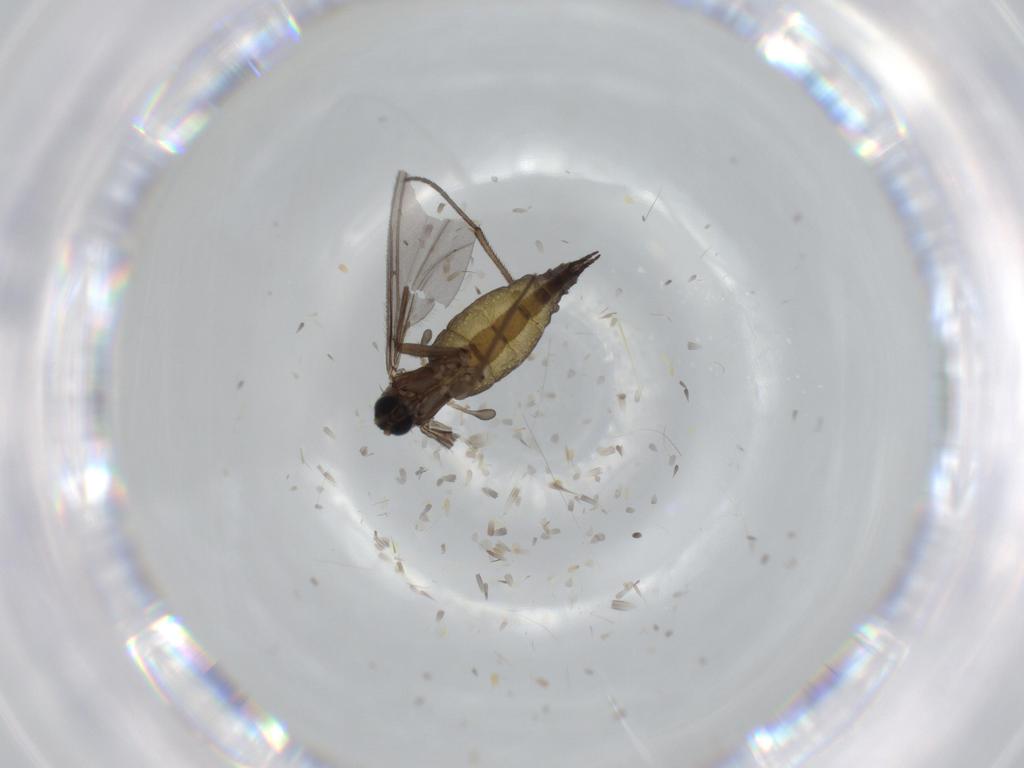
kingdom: Animalia
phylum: Arthropoda
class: Insecta
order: Diptera
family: Sciaridae
